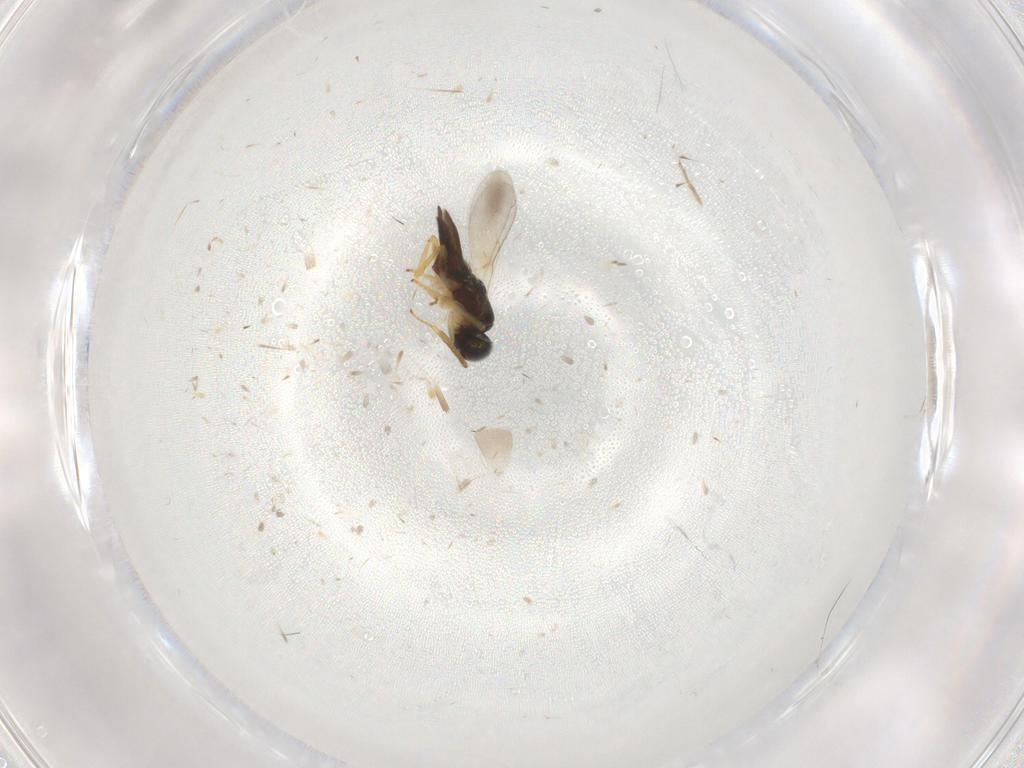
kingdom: Animalia
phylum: Arthropoda
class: Insecta
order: Hymenoptera
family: Encyrtidae
